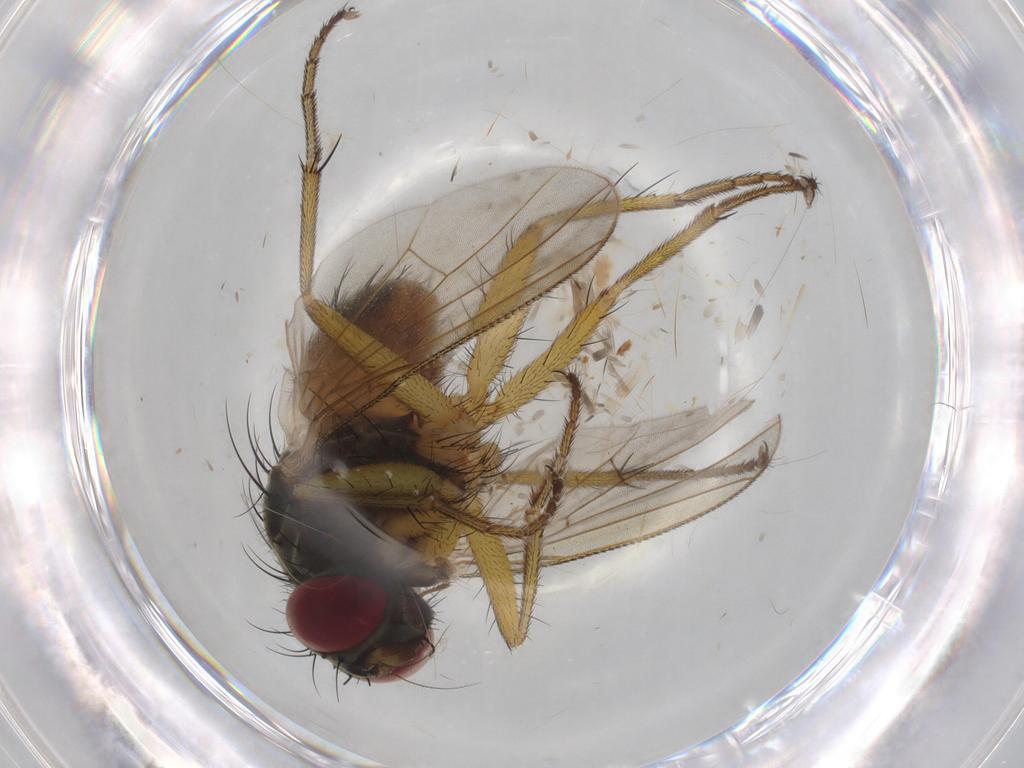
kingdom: Animalia
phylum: Arthropoda
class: Insecta
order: Diptera
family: Muscidae
